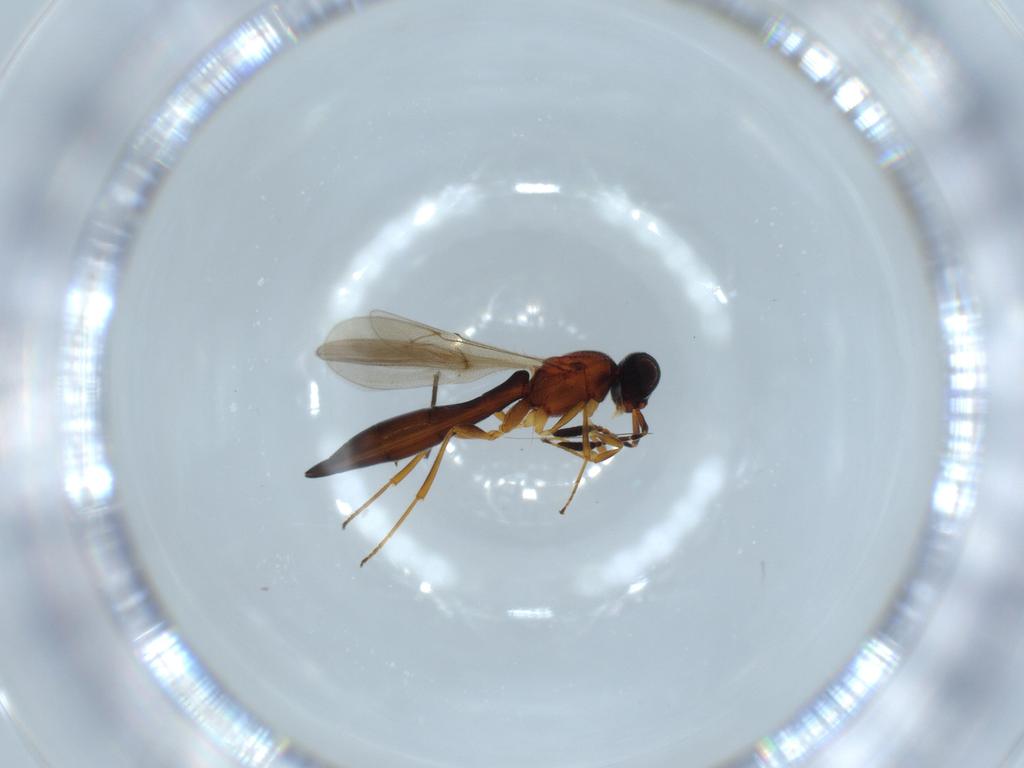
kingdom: Animalia
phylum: Arthropoda
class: Insecta
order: Hymenoptera
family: Scelionidae
